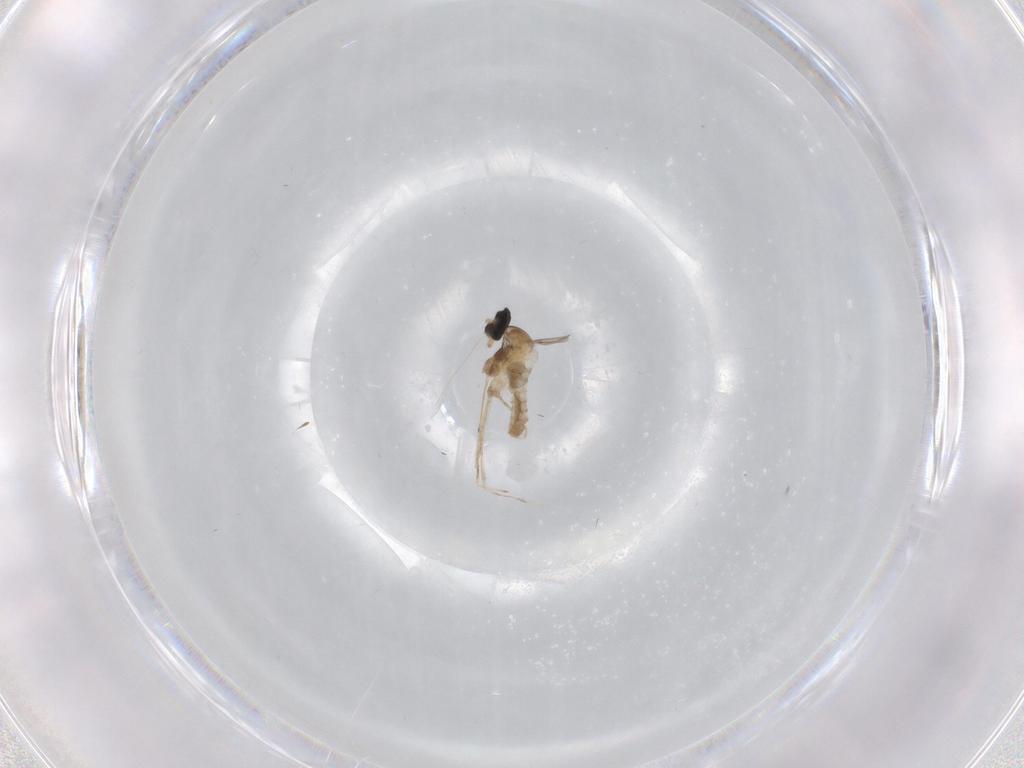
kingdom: Animalia
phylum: Arthropoda
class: Insecta
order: Diptera
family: Cecidomyiidae
